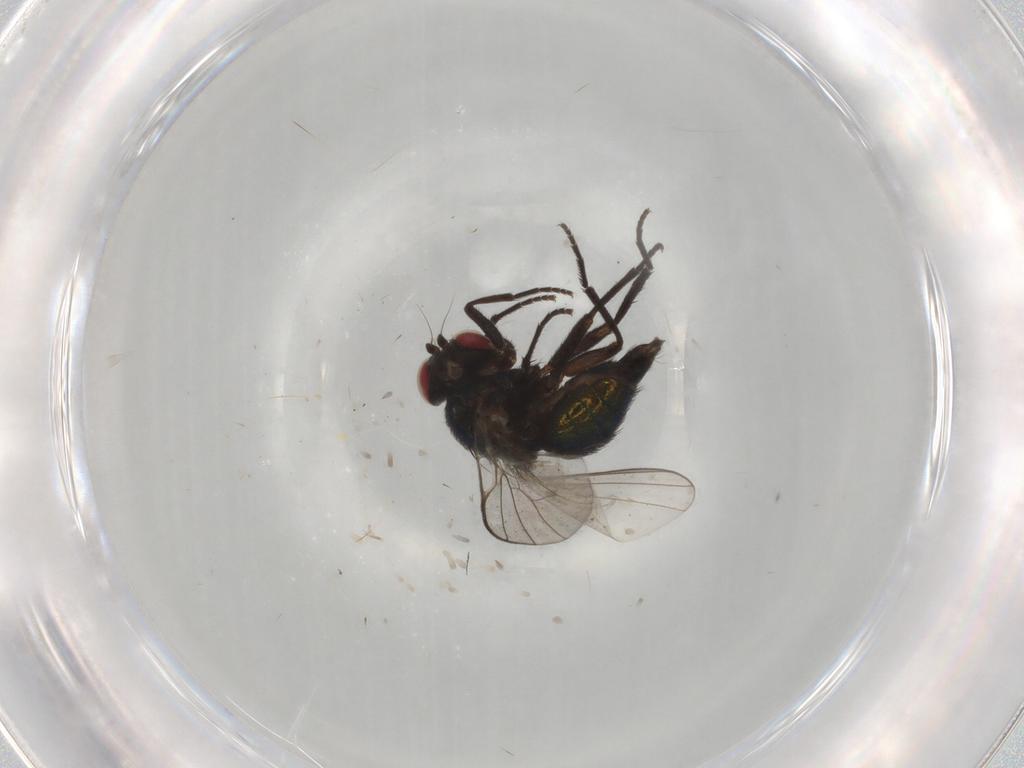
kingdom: Animalia
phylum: Arthropoda
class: Insecta
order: Diptera
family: Agromyzidae
